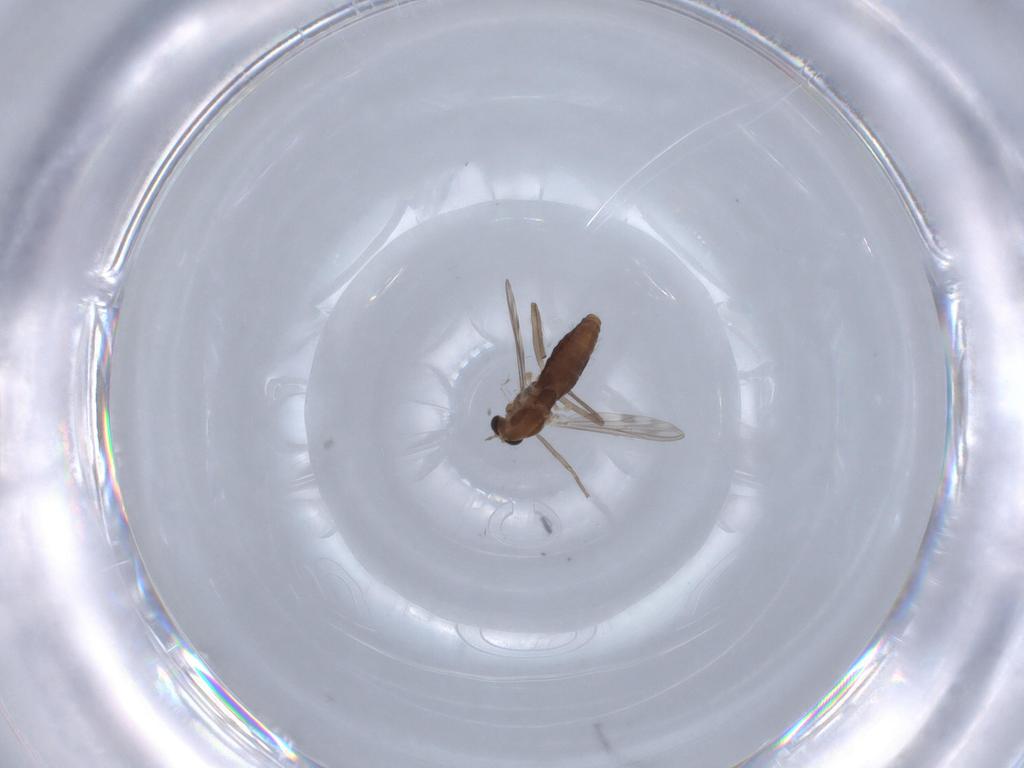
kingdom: Animalia
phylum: Arthropoda
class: Insecta
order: Diptera
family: Chironomidae
